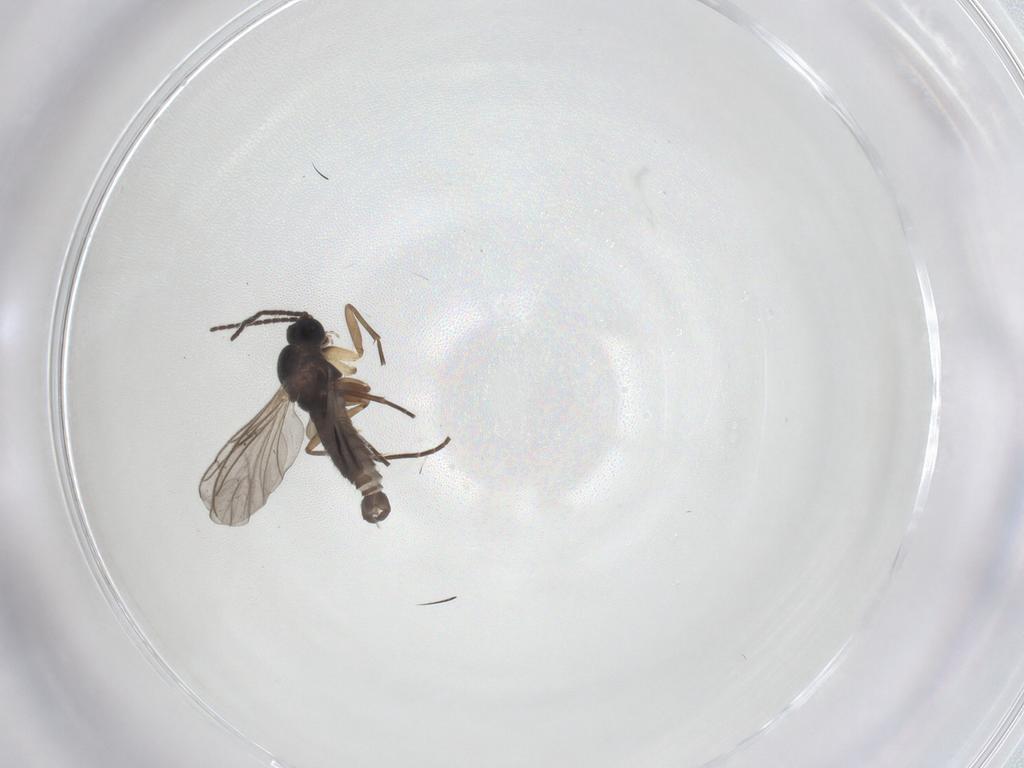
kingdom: Animalia
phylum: Arthropoda
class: Insecta
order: Diptera
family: Sciaridae
